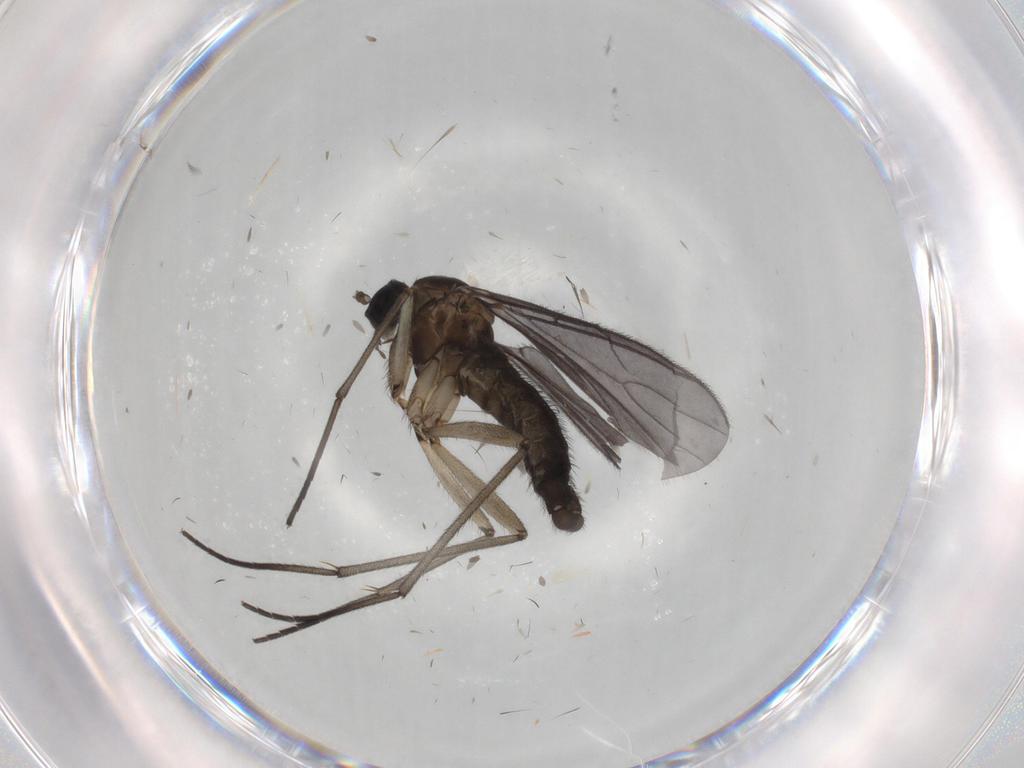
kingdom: Animalia
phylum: Arthropoda
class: Insecta
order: Diptera
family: Sciaridae
